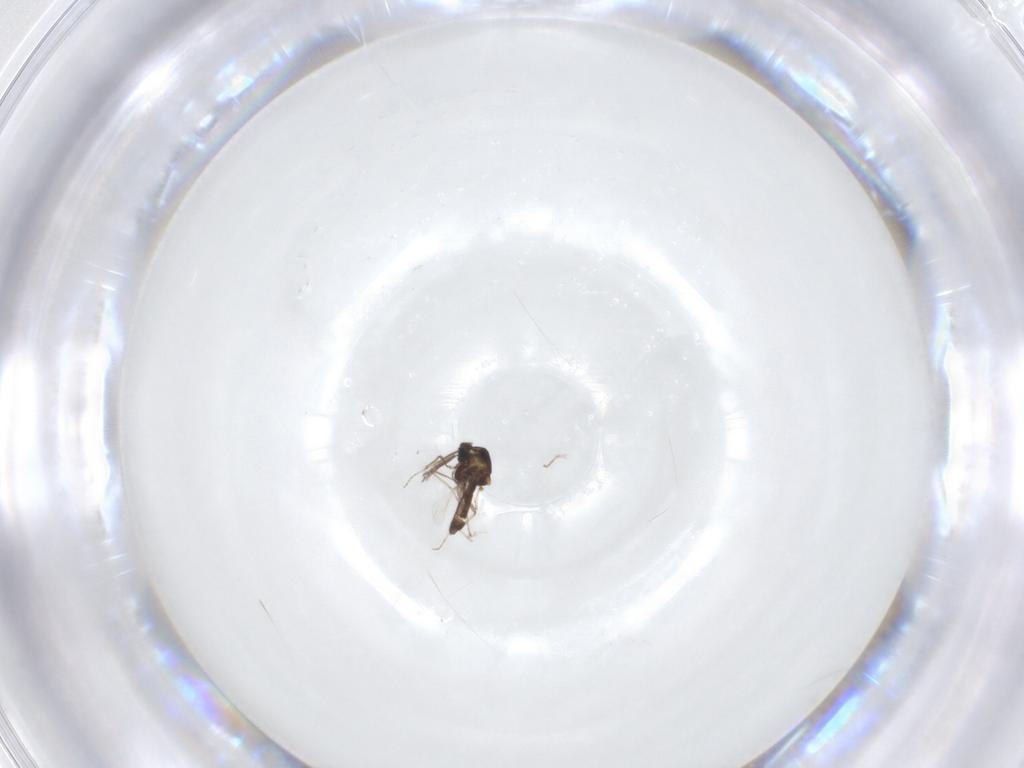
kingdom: Animalia
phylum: Arthropoda
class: Insecta
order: Diptera
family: Ceratopogonidae
